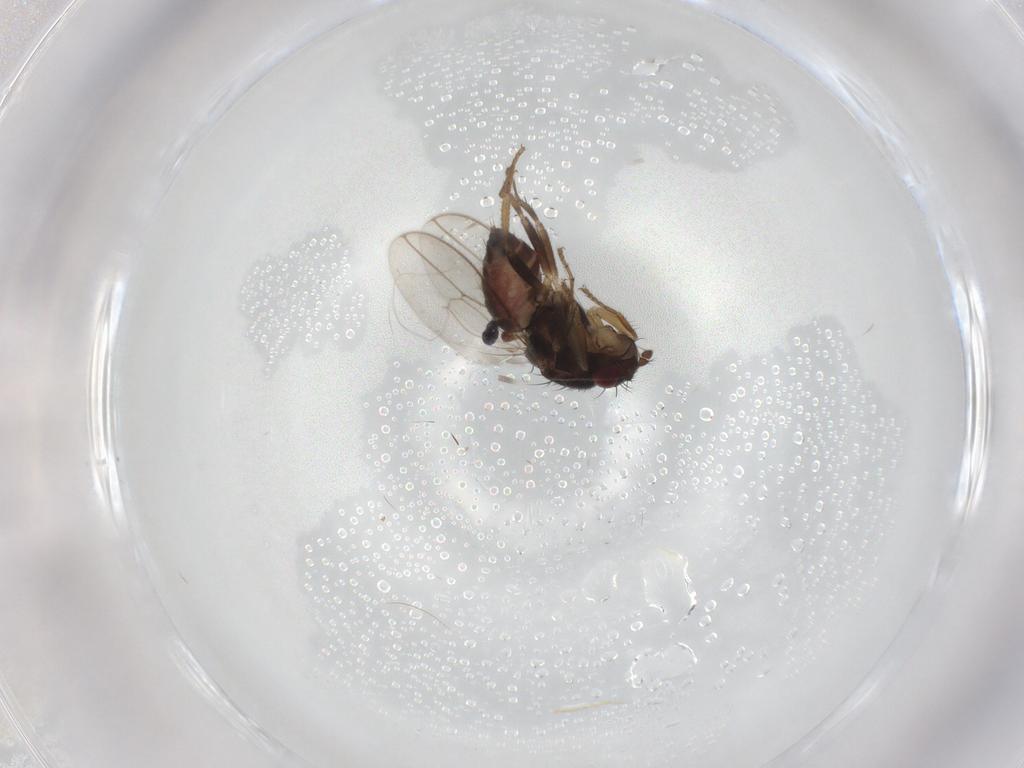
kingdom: Animalia
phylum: Arthropoda
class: Insecta
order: Diptera
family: Sphaeroceridae
